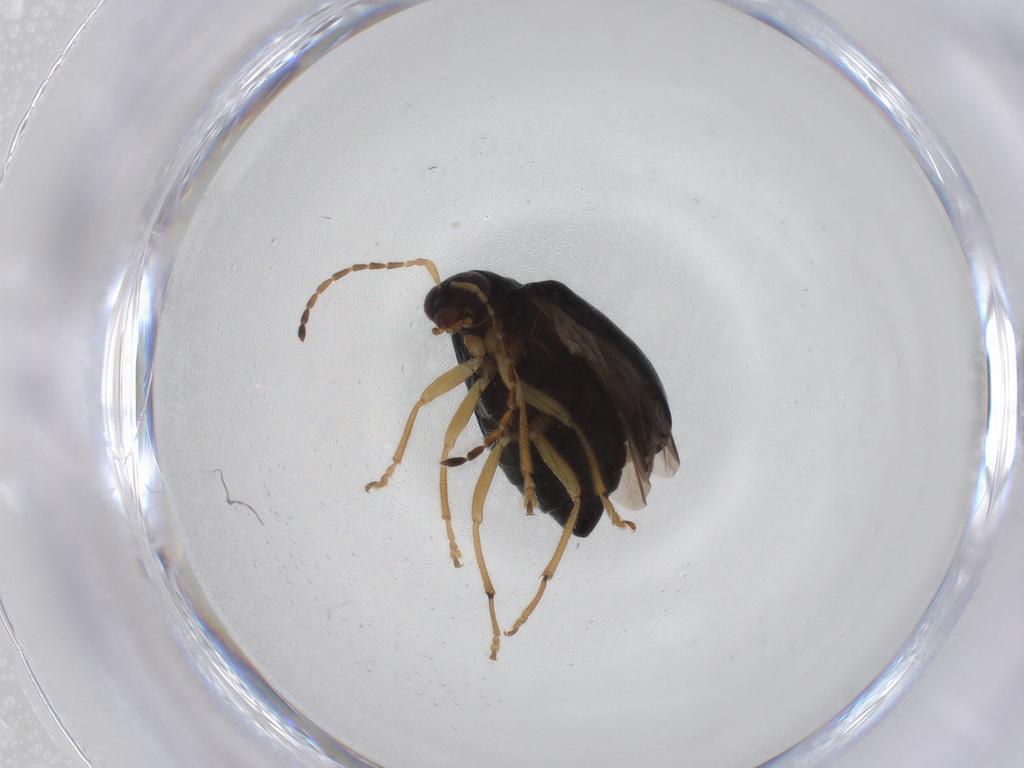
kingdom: Animalia
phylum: Arthropoda
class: Insecta
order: Coleoptera
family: Chrysomelidae
